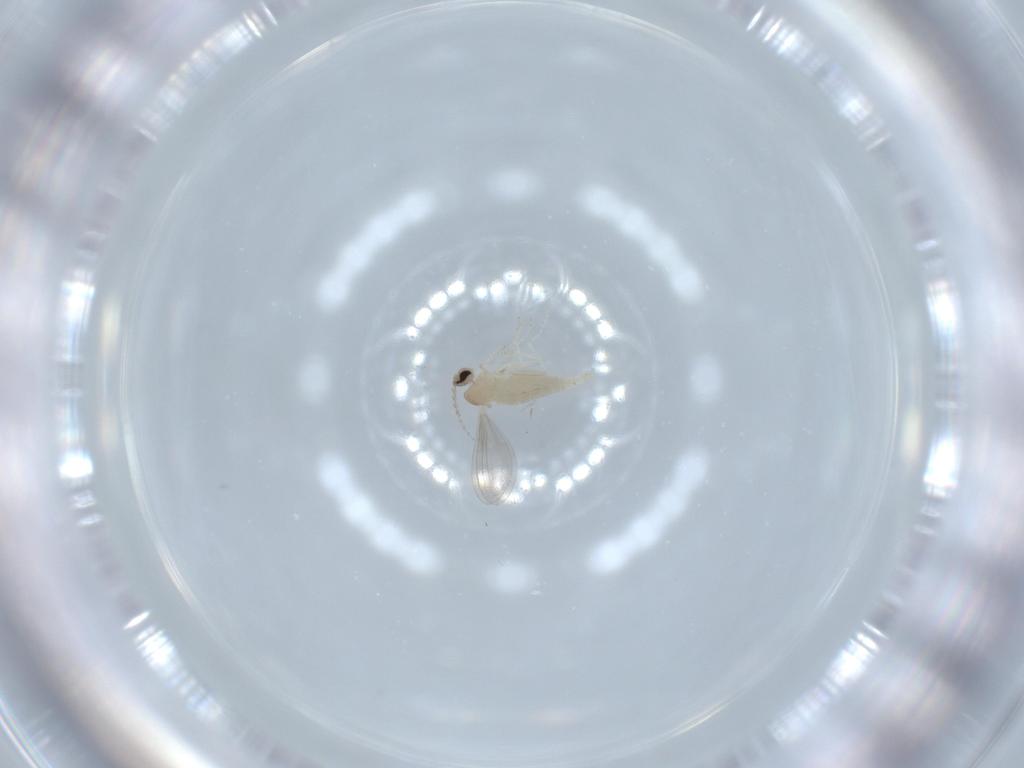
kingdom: Animalia
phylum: Arthropoda
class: Insecta
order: Diptera
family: Cecidomyiidae
